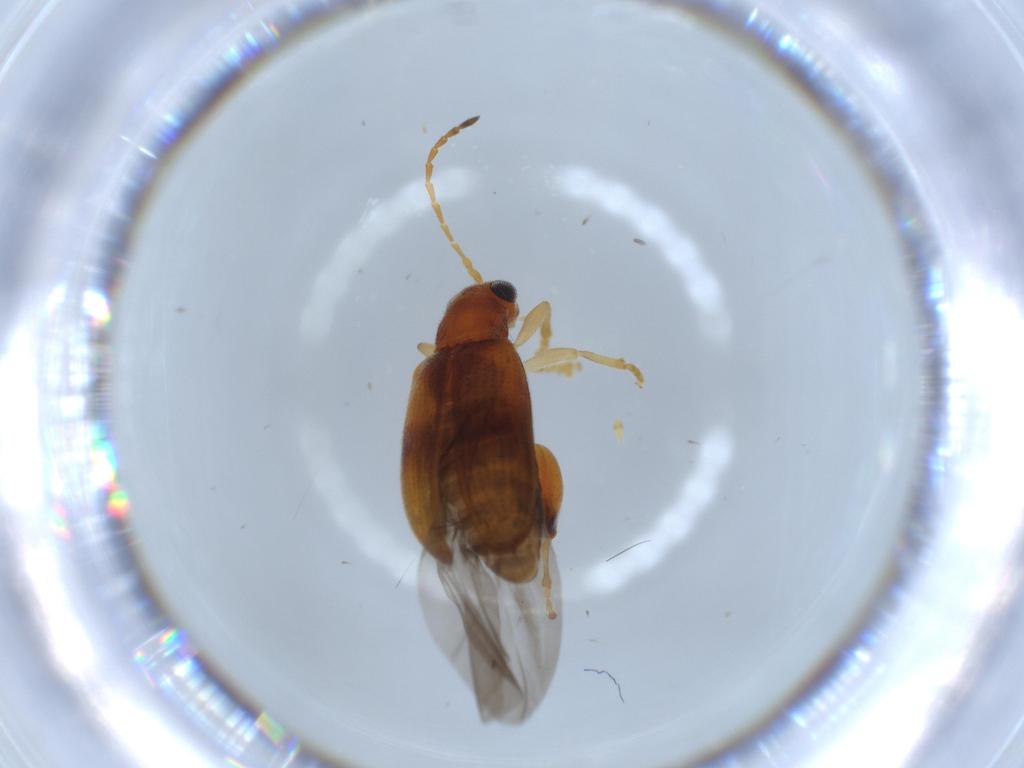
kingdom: Animalia
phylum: Arthropoda
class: Insecta
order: Coleoptera
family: Chrysomelidae
